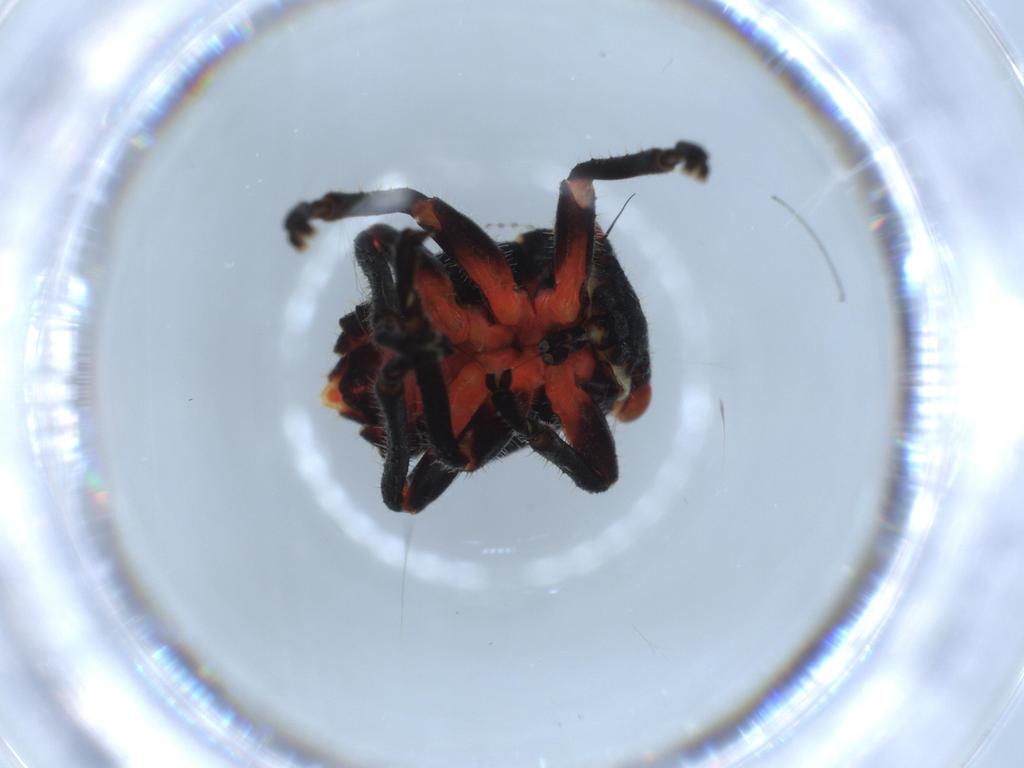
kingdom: Animalia
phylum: Arthropoda
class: Insecta
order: Hemiptera
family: Cicadellidae
